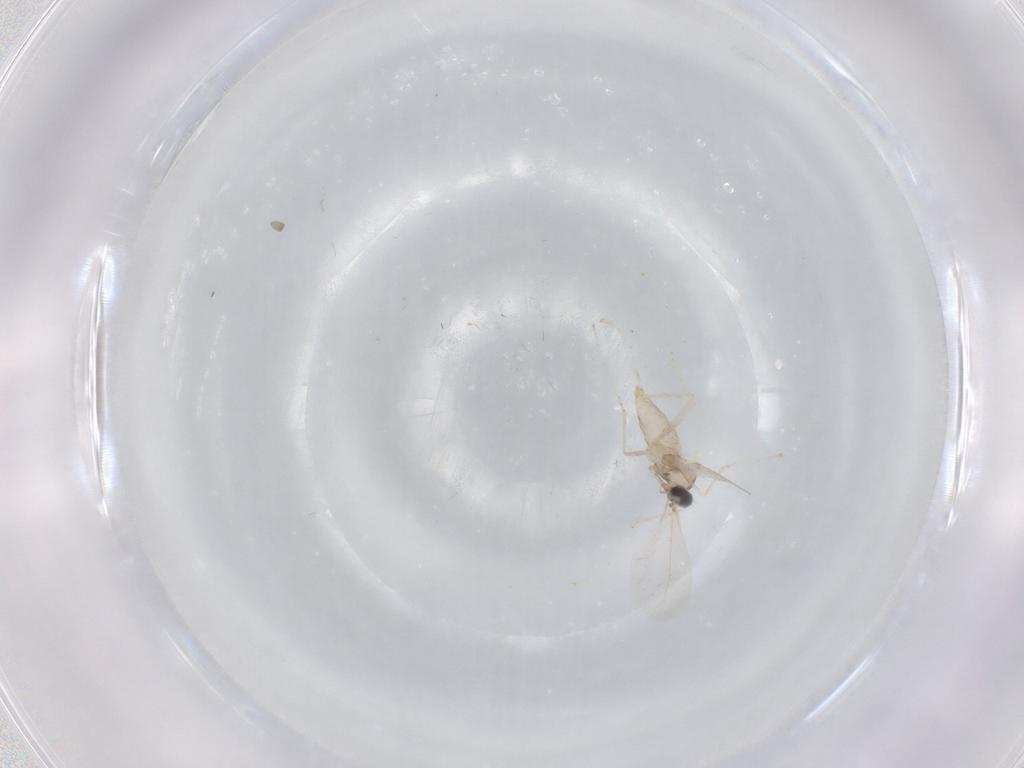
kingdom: Animalia
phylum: Arthropoda
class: Insecta
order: Diptera
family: Cecidomyiidae
